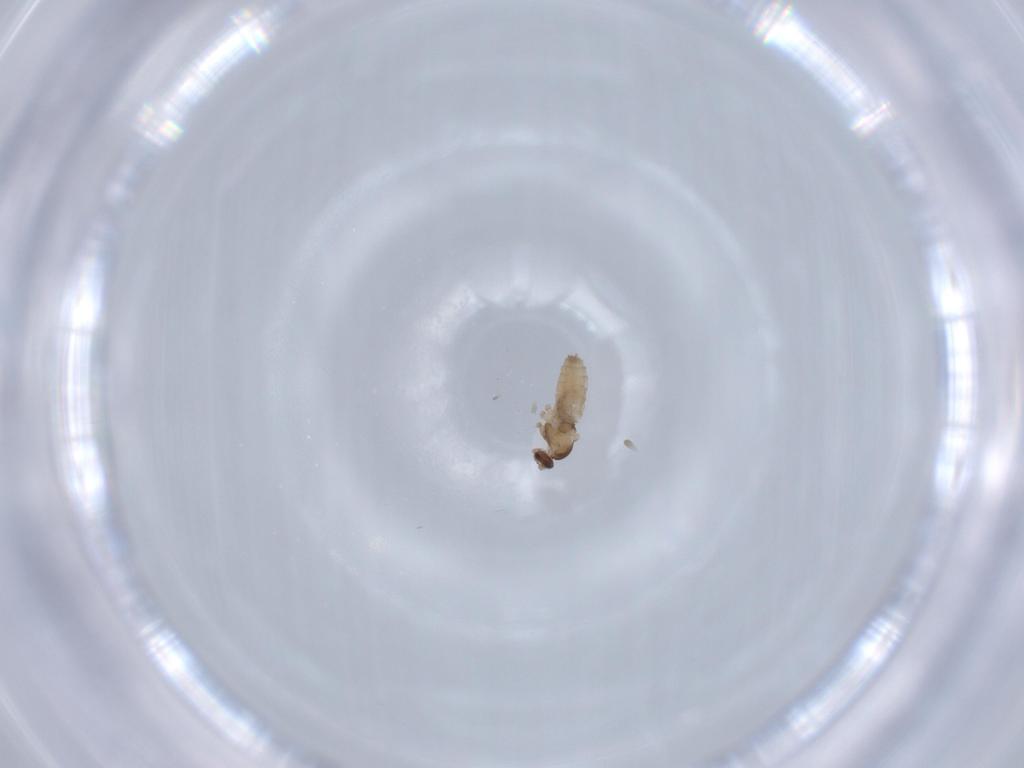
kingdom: Animalia
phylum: Arthropoda
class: Insecta
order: Diptera
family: Cecidomyiidae
